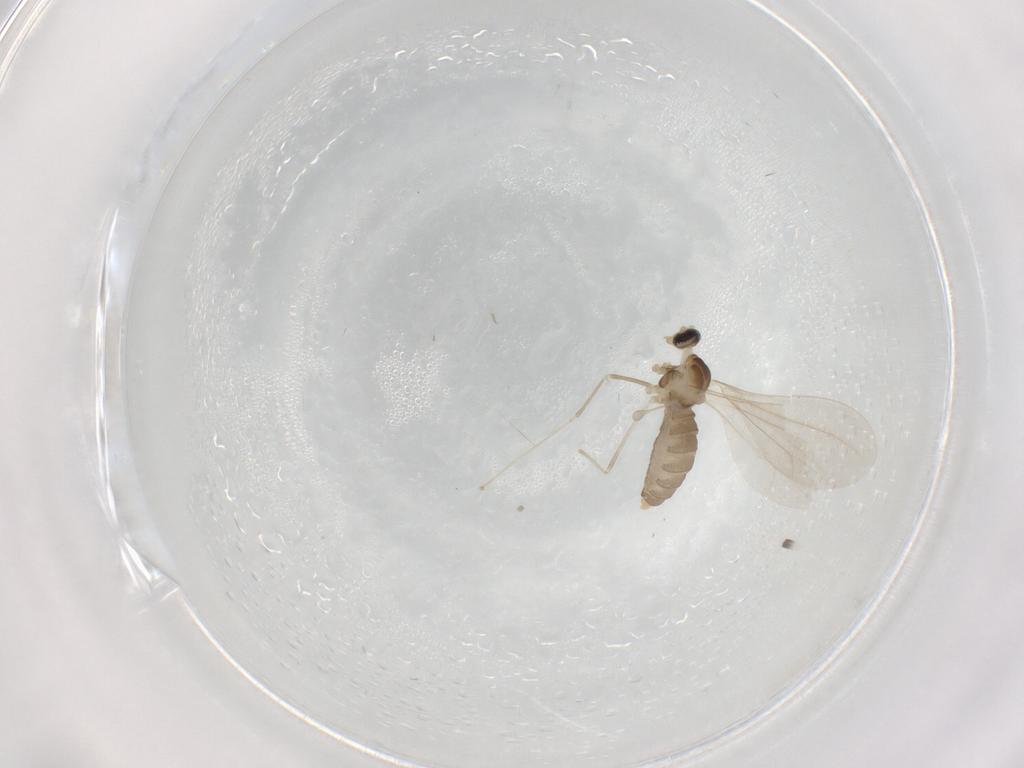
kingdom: Animalia
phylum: Arthropoda
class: Insecta
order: Diptera
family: Cecidomyiidae
